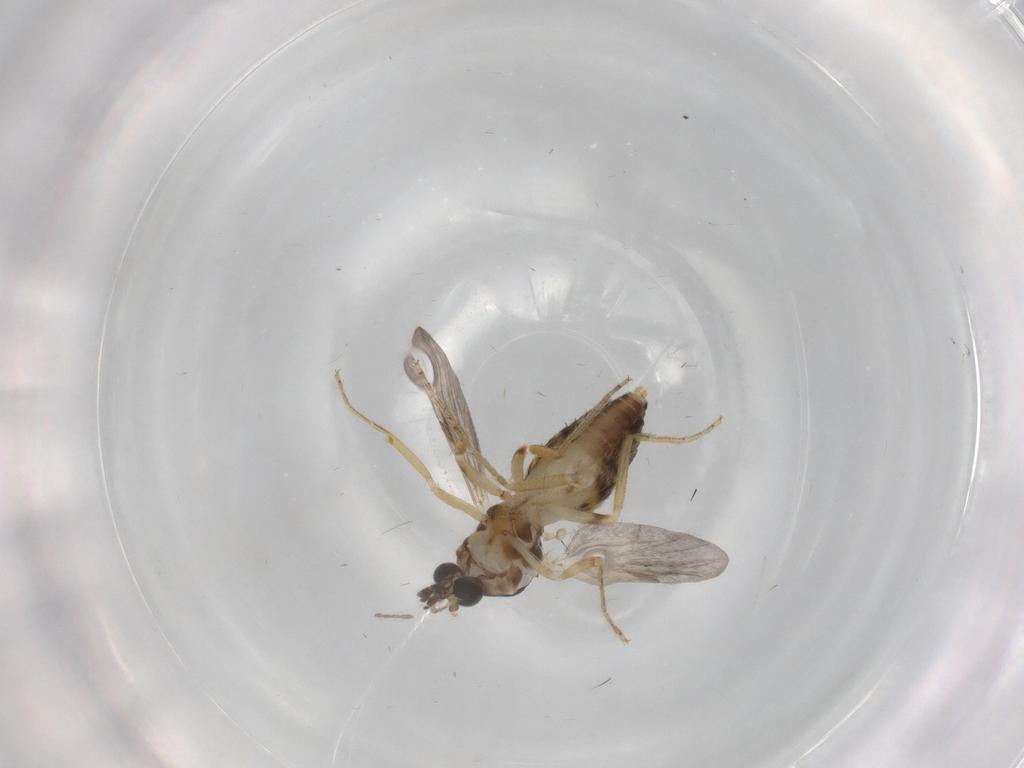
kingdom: Animalia
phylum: Arthropoda
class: Insecta
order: Diptera
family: Ceratopogonidae
